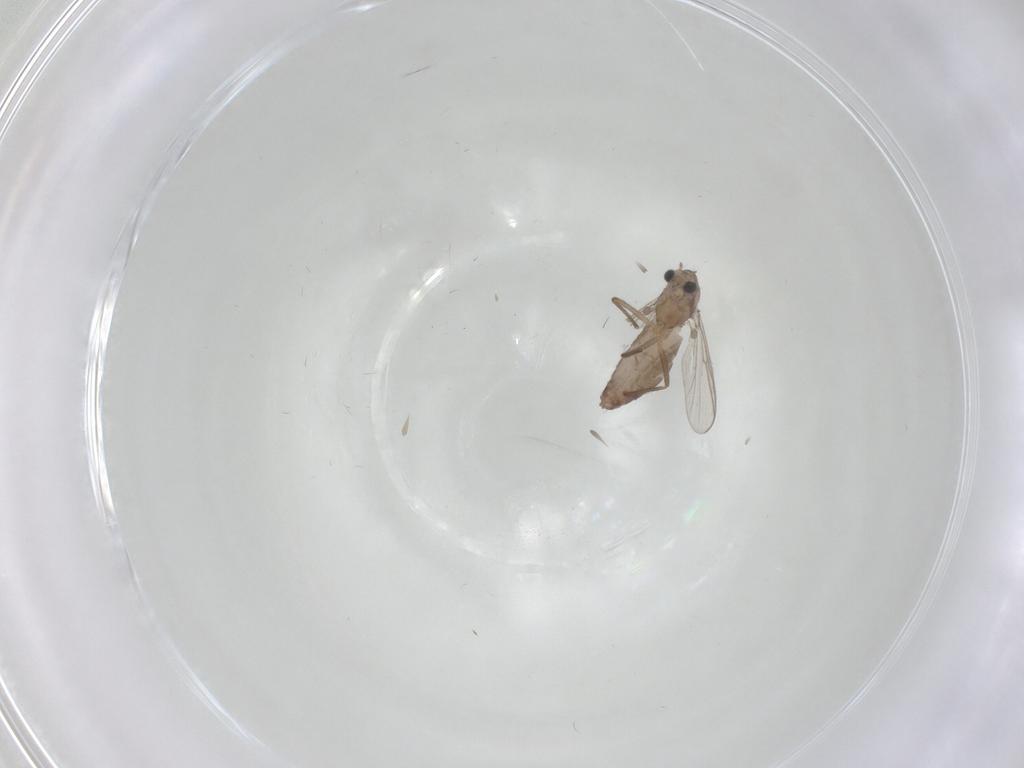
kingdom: Animalia
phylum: Arthropoda
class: Insecta
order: Diptera
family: Chironomidae
